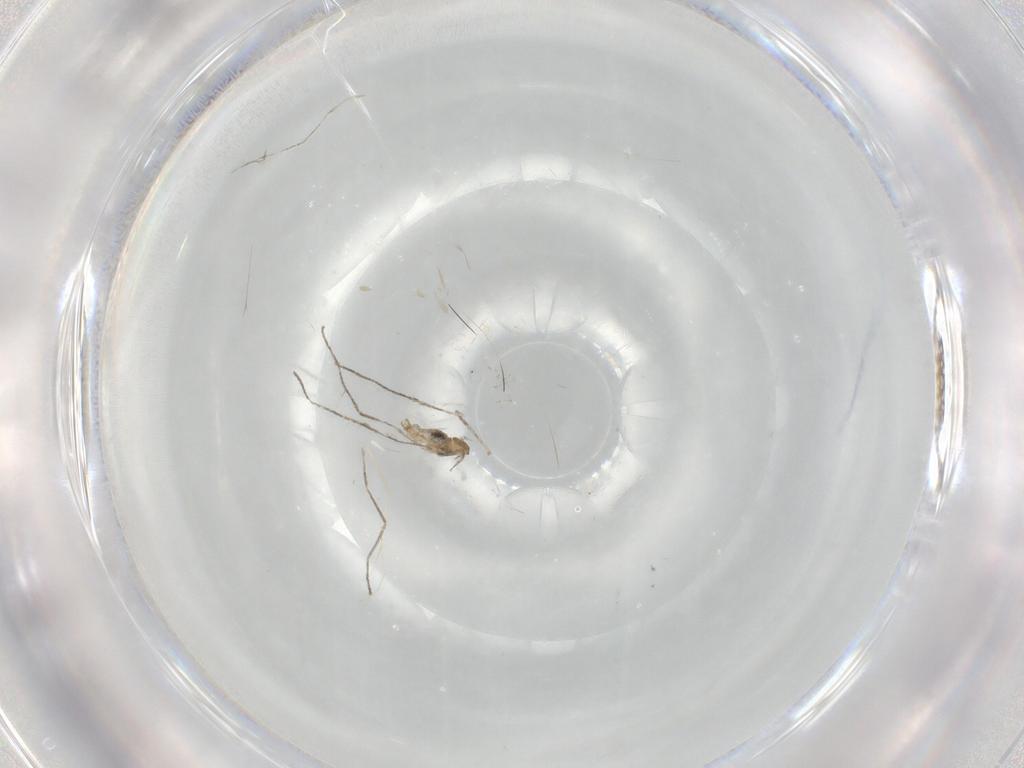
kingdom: Animalia
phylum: Arthropoda
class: Insecta
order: Diptera
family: Cecidomyiidae
